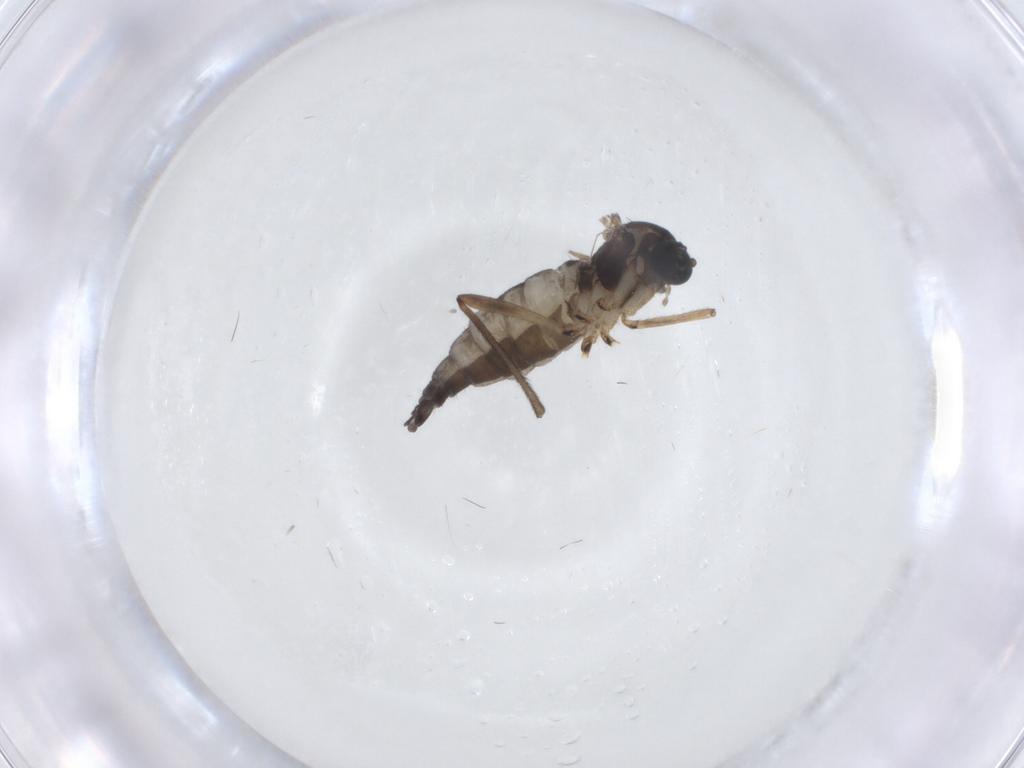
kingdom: Animalia
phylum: Arthropoda
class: Insecta
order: Diptera
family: Sciaridae
